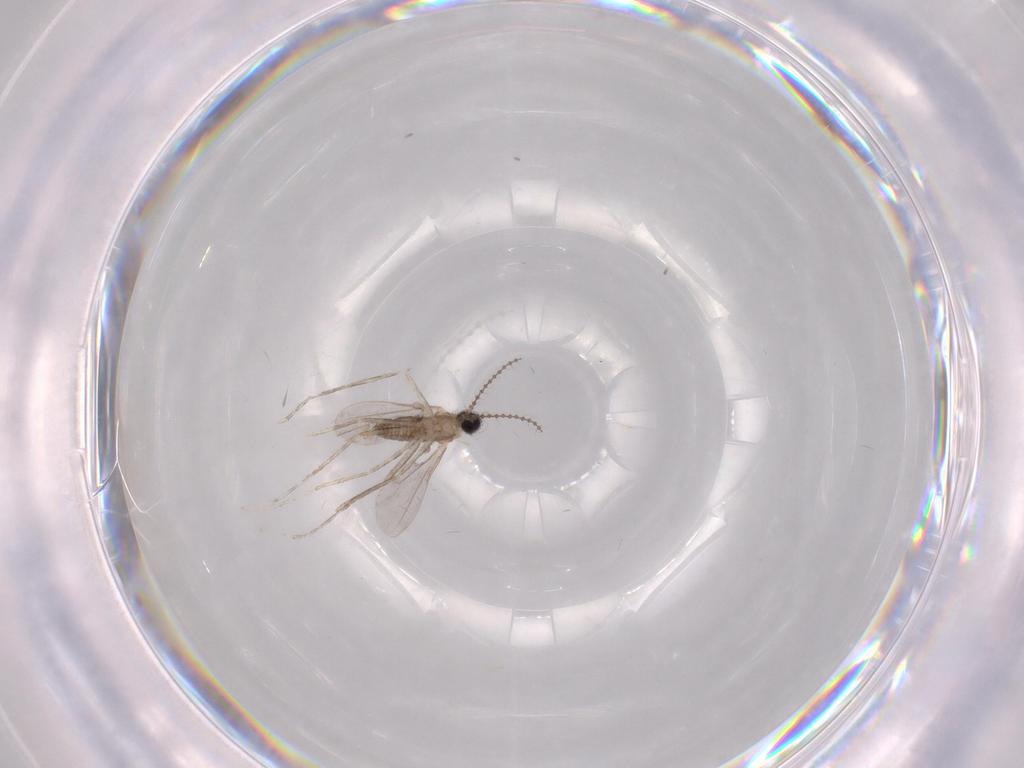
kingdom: Animalia
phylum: Arthropoda
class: Insecta
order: Diptera
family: Cecidomyiidae
